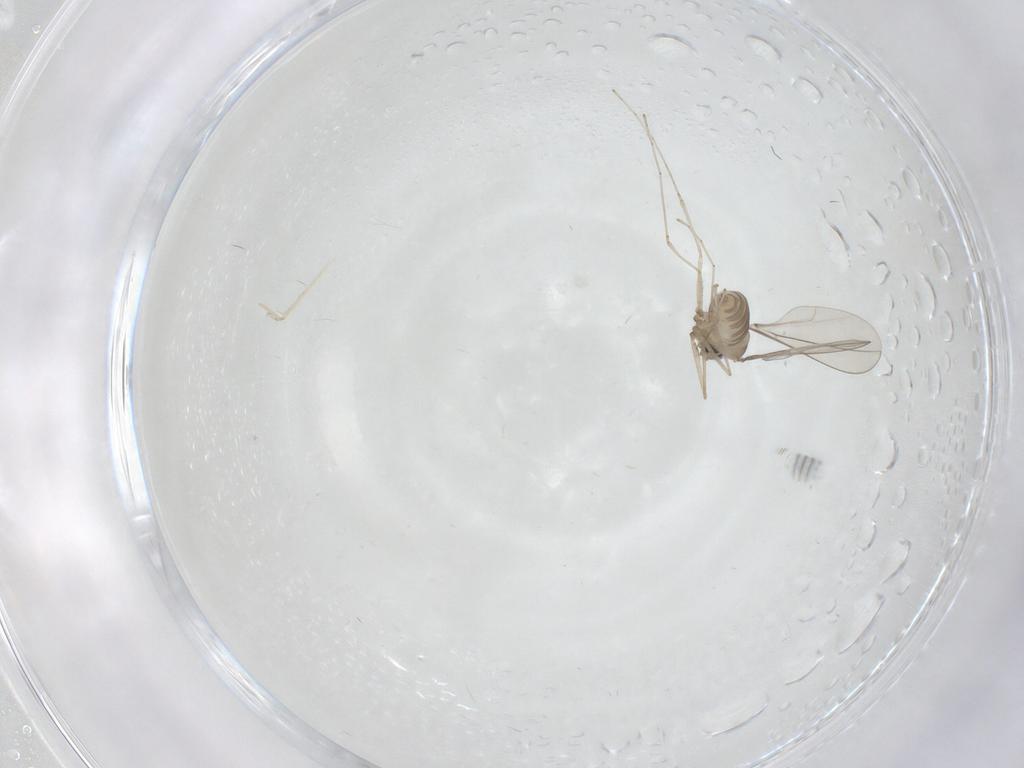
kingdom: Animalia
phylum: Arthropoda
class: Insecta
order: Diptera
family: Cecidomyiidae
